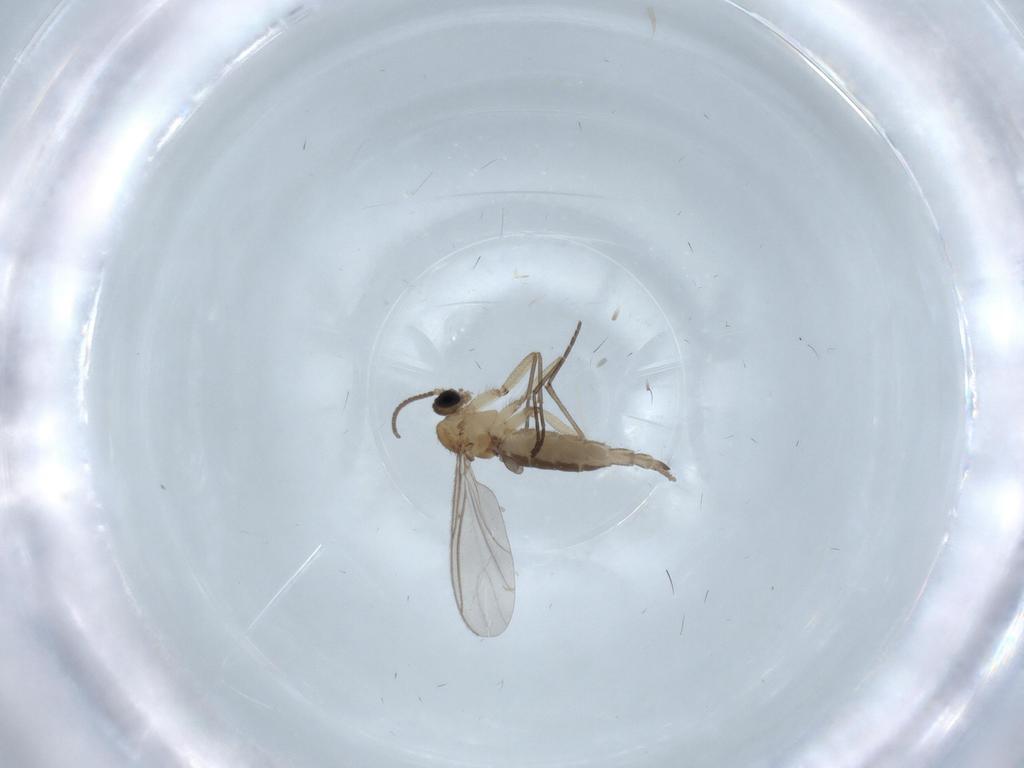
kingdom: Animalia
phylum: Arthropoda
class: Insecta
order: Diptera
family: Sciaridae
